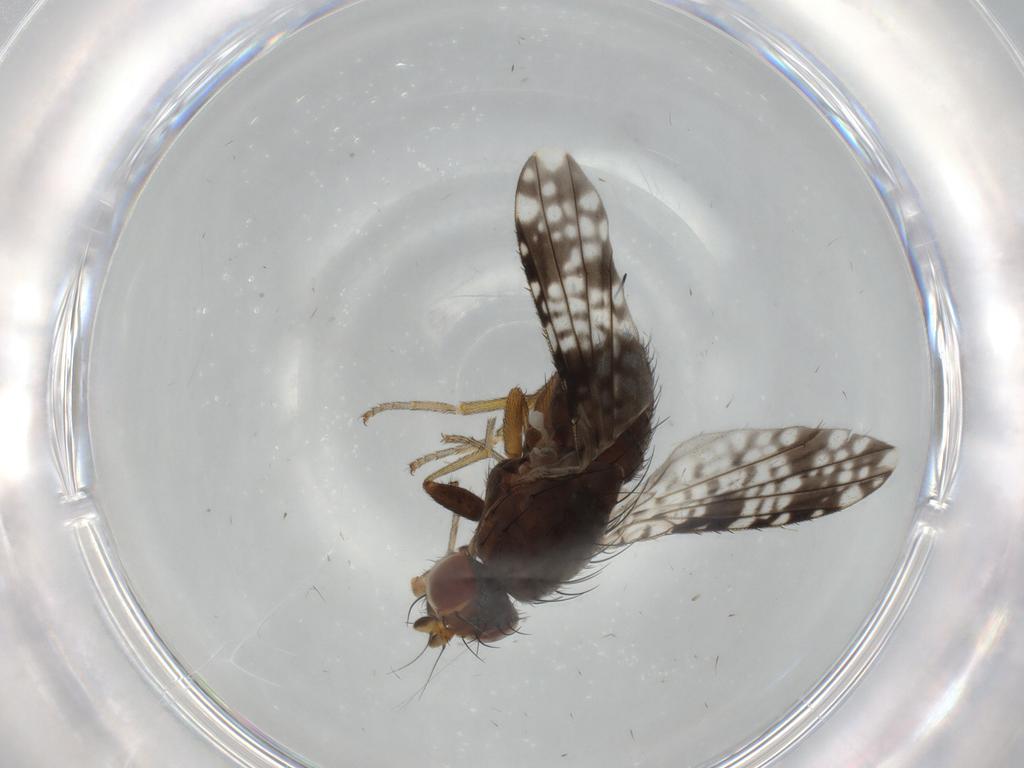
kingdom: Animalia
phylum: Arthropoda
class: Insecta
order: Diptera
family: Tephritidae
